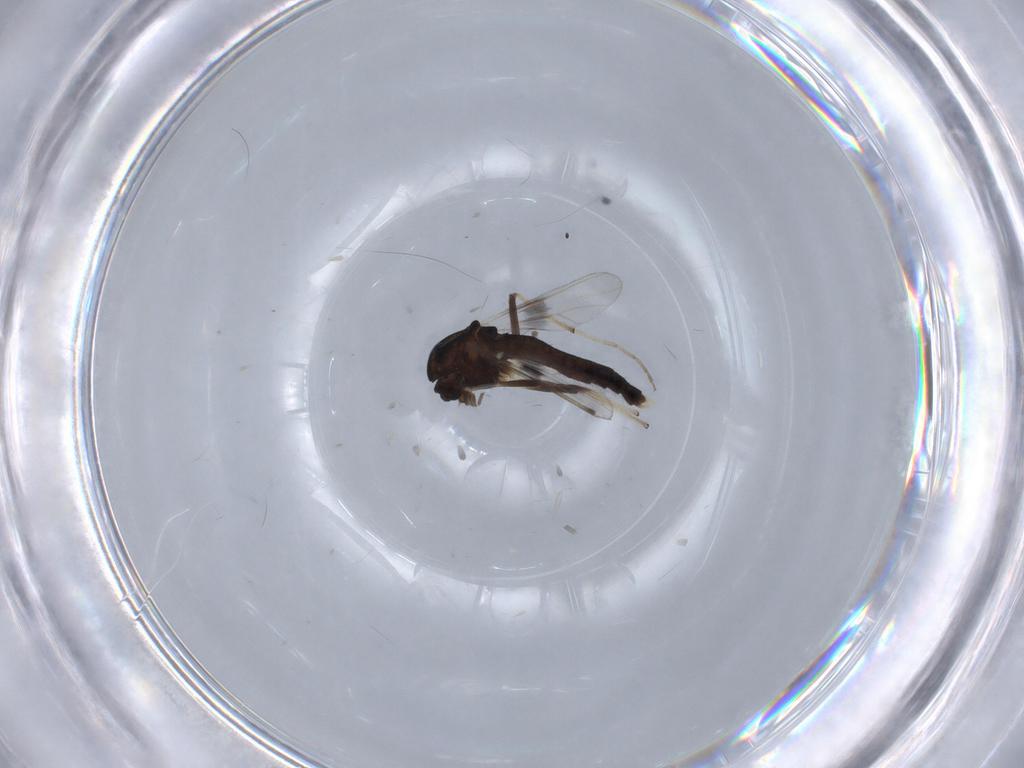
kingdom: Animalia
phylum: Arthropoda
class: Insecta
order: Diptera
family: Chironomidae
